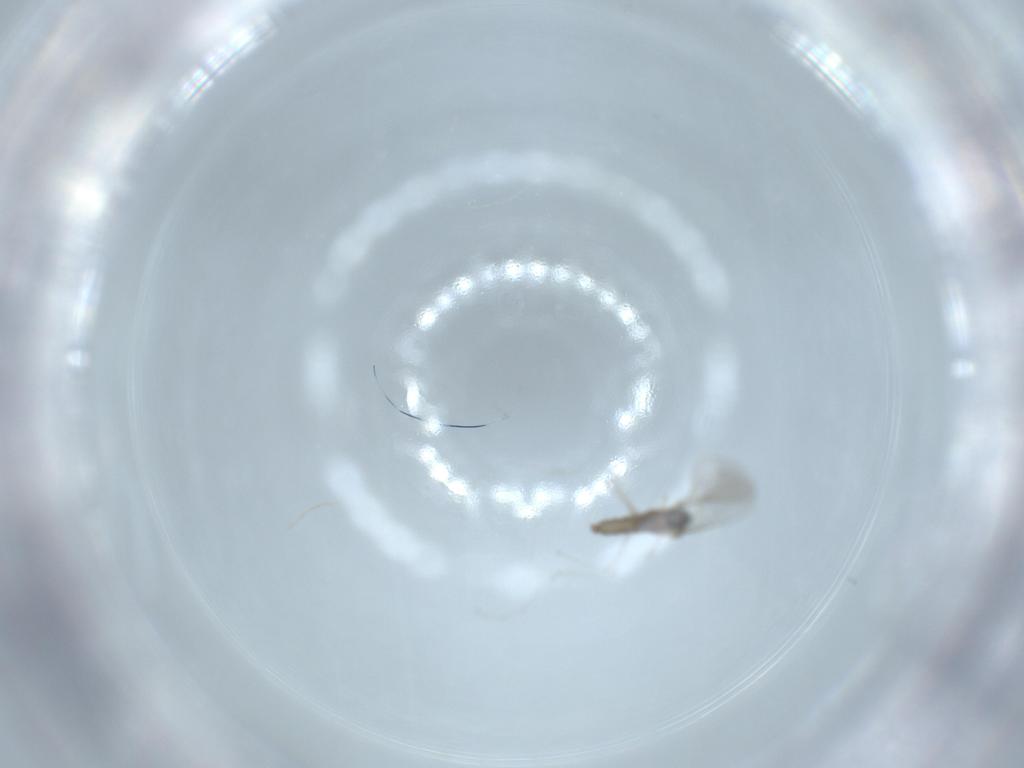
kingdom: Animalia
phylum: Arthropoda
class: Insecta
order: Diptera
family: Cecidomyiidae
